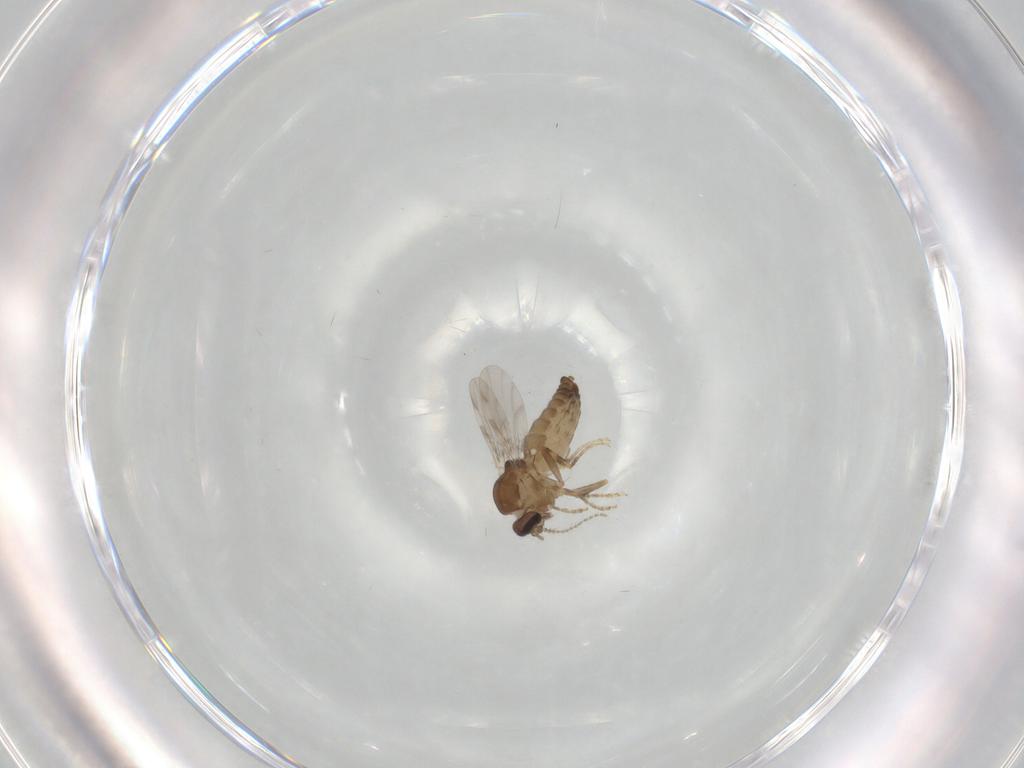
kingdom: Animalia
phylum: Arthropoda
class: Insecta
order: Diptera
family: Ceratopogonidae
